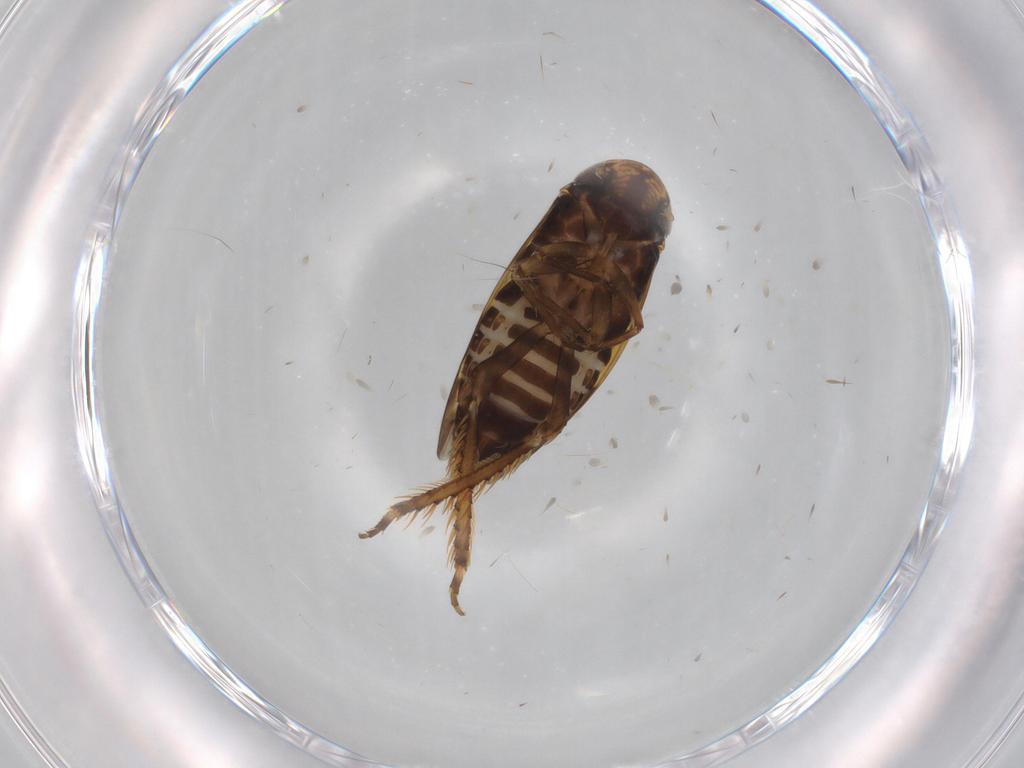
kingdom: Animalia
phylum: Arthropoda
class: Insecta
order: Hemiptera
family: Cicadellidae
